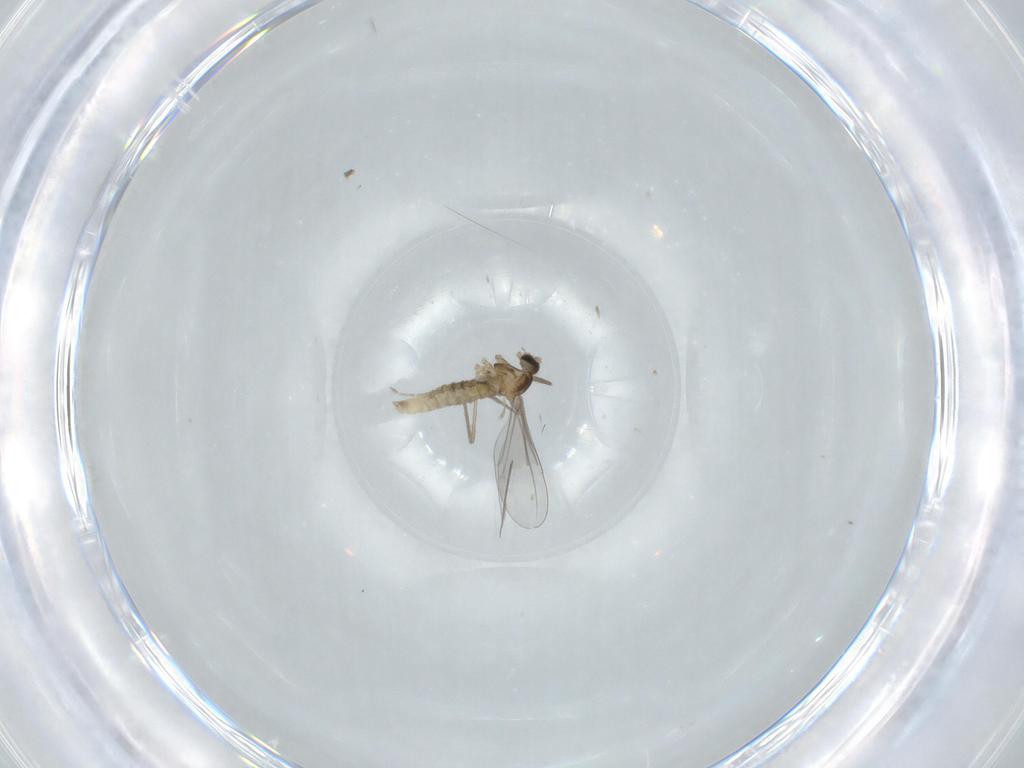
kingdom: Animalia
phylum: Arthropoda
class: Insecta
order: Diptera
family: Cecidomyiidae
